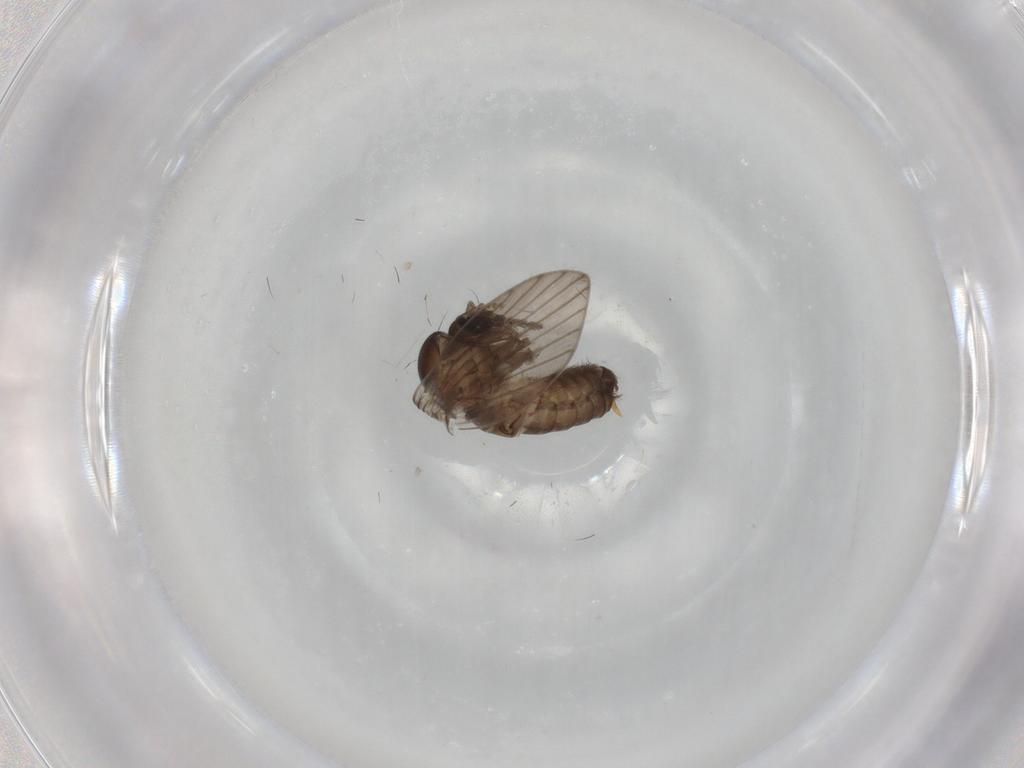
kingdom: Animalia
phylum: Arthropoda
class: Insecta
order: Diptera
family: Psychodidae
